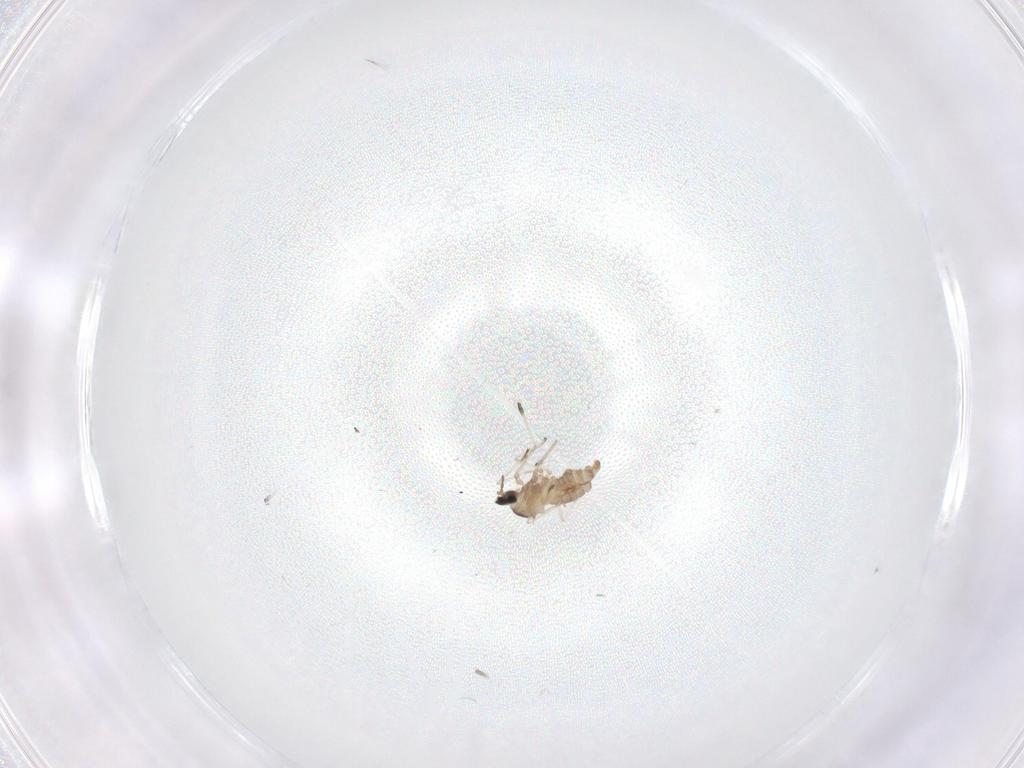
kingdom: Animalia
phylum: Arthropoda
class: Insecta
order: Diptera
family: Cecidomyiidae
